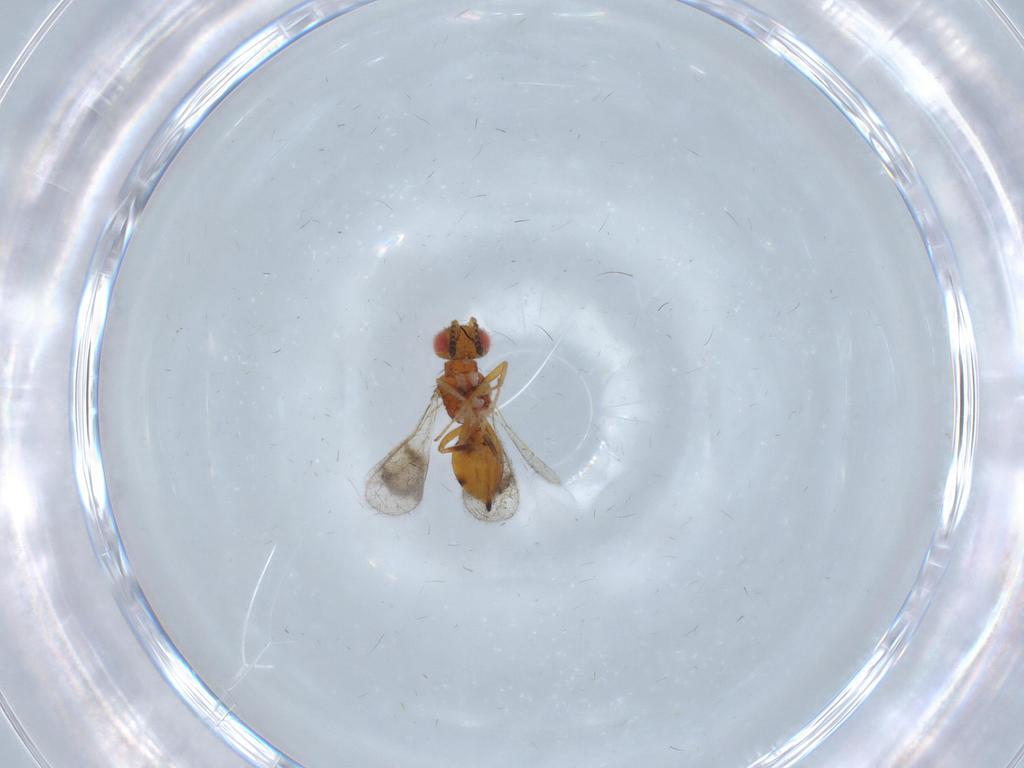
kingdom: Animalia
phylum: Arthropoda
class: Insecta
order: Hymenoptera
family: Eulophidae
